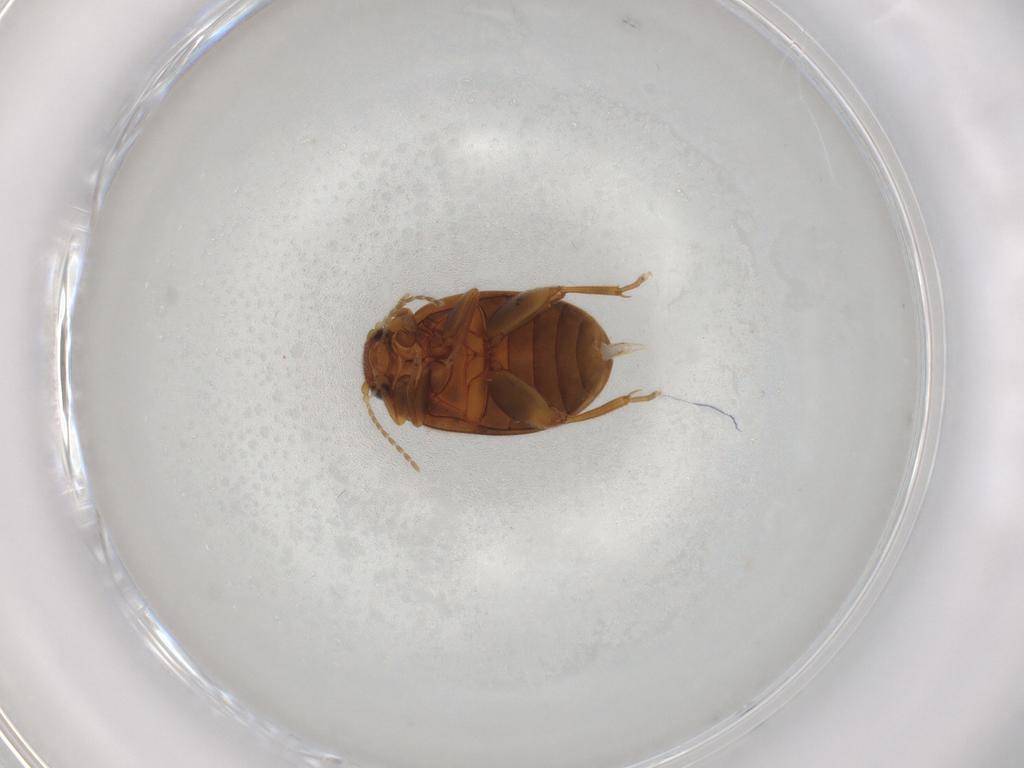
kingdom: Animalia
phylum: Arthropoda
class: Insecta
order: Coleoptera
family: Scirtidae
